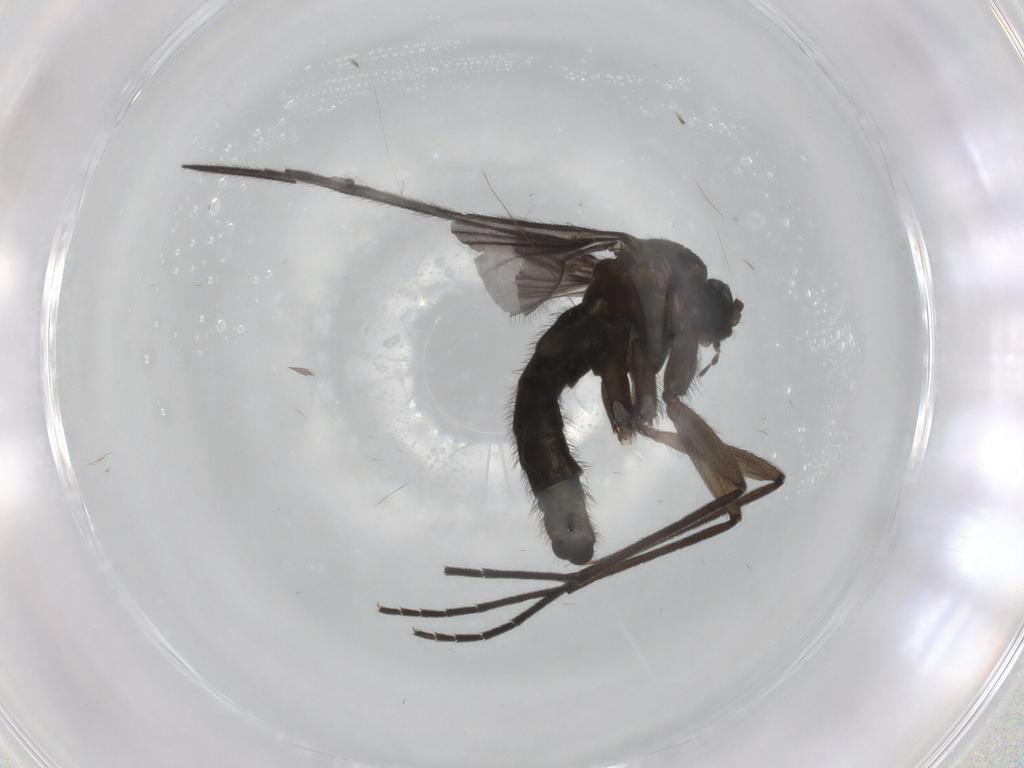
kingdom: Animalia
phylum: Arthropoda
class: Insecta
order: Diptera
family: Sciaridae
